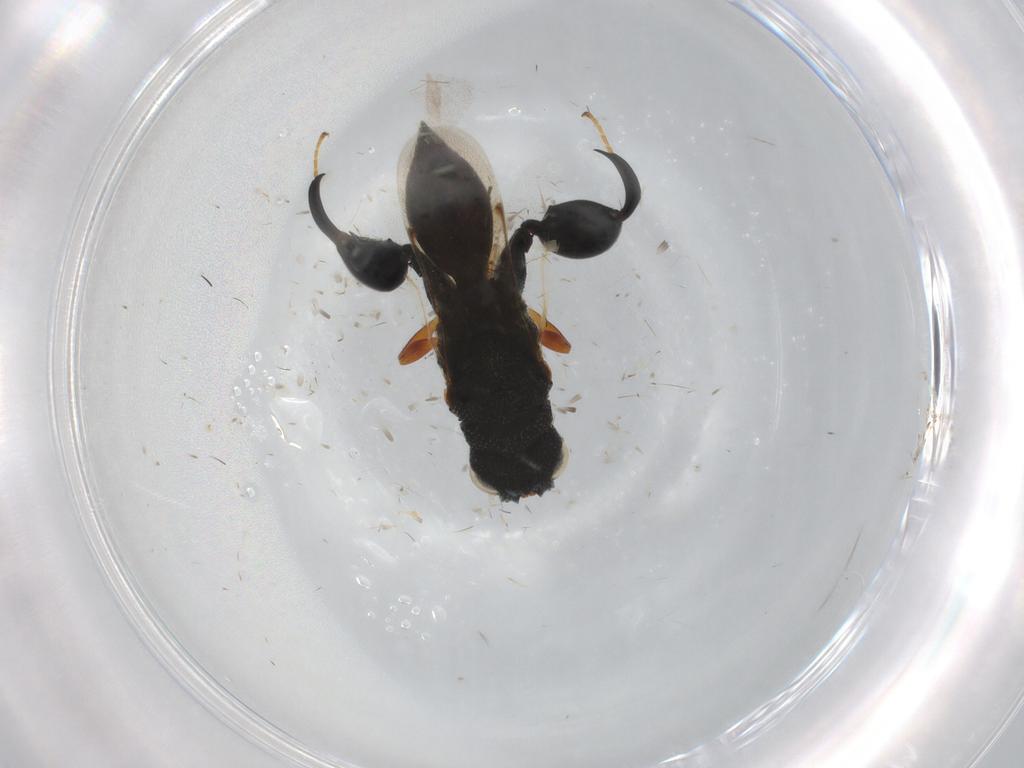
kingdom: Animalia
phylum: Arthropoda
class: Insecta
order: Hymenoptera
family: Chalcididae
